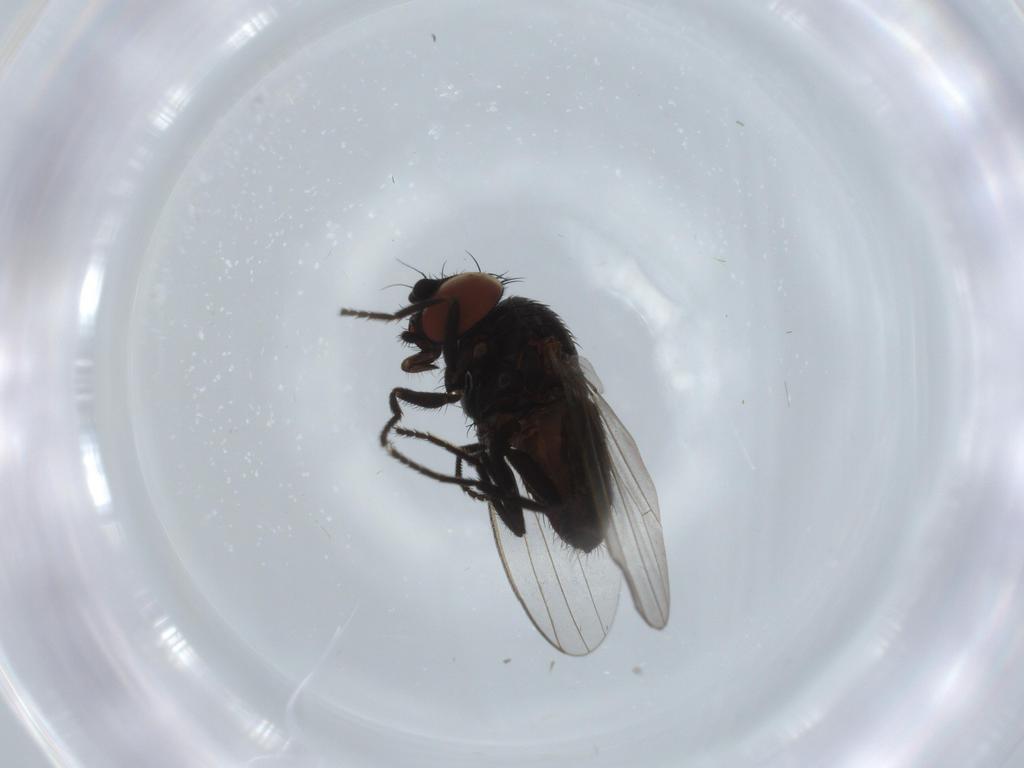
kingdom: Animalia
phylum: Arthropoda
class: Insecta
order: Diptera
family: Milichiidae
